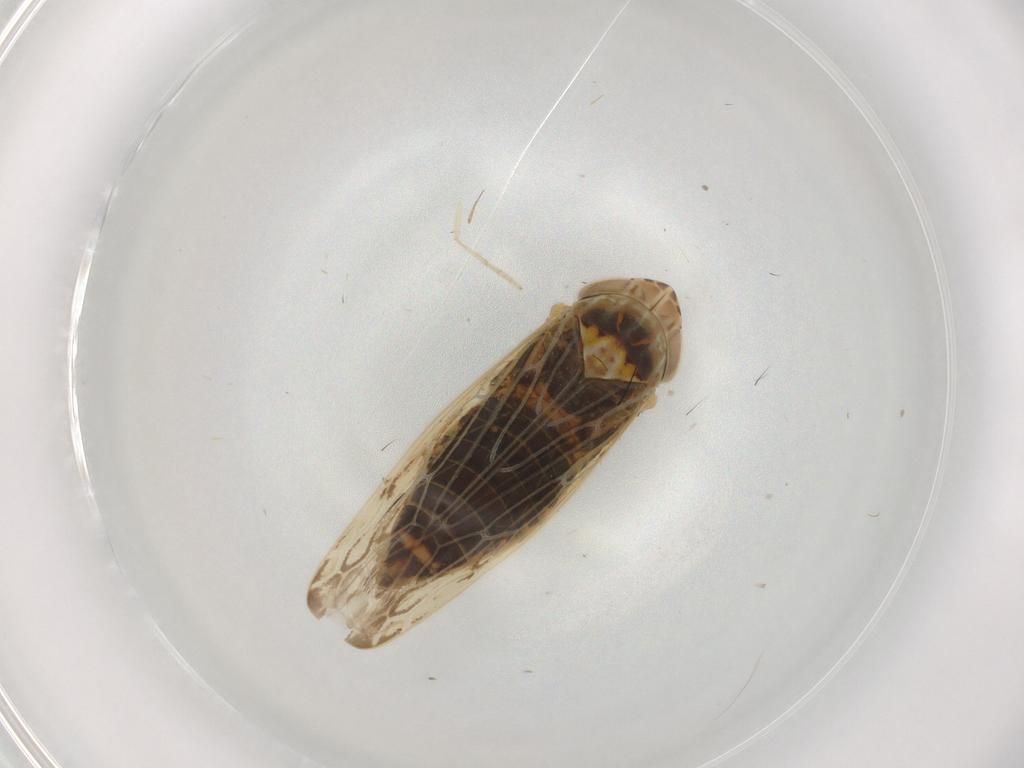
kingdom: Animalia
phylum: Arthropoda
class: Insecta
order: Hemiptera
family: Cicadellidae
